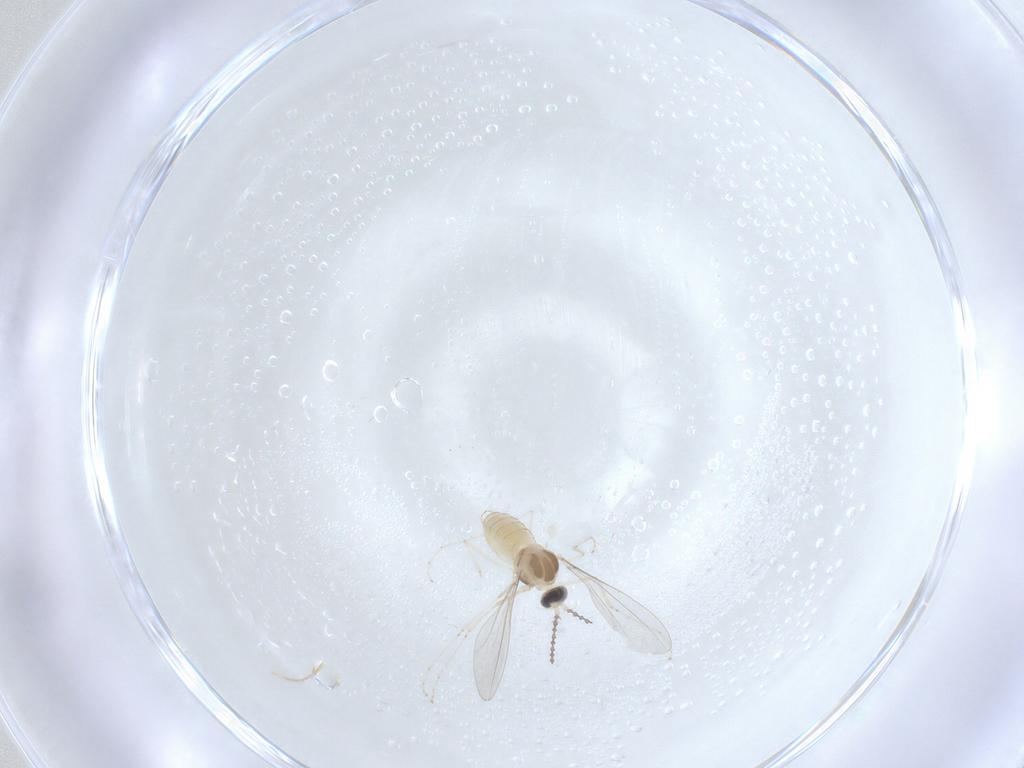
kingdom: Animalia
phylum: Arthropoda
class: Insecta
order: Diptera
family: Cecidomyiidae
